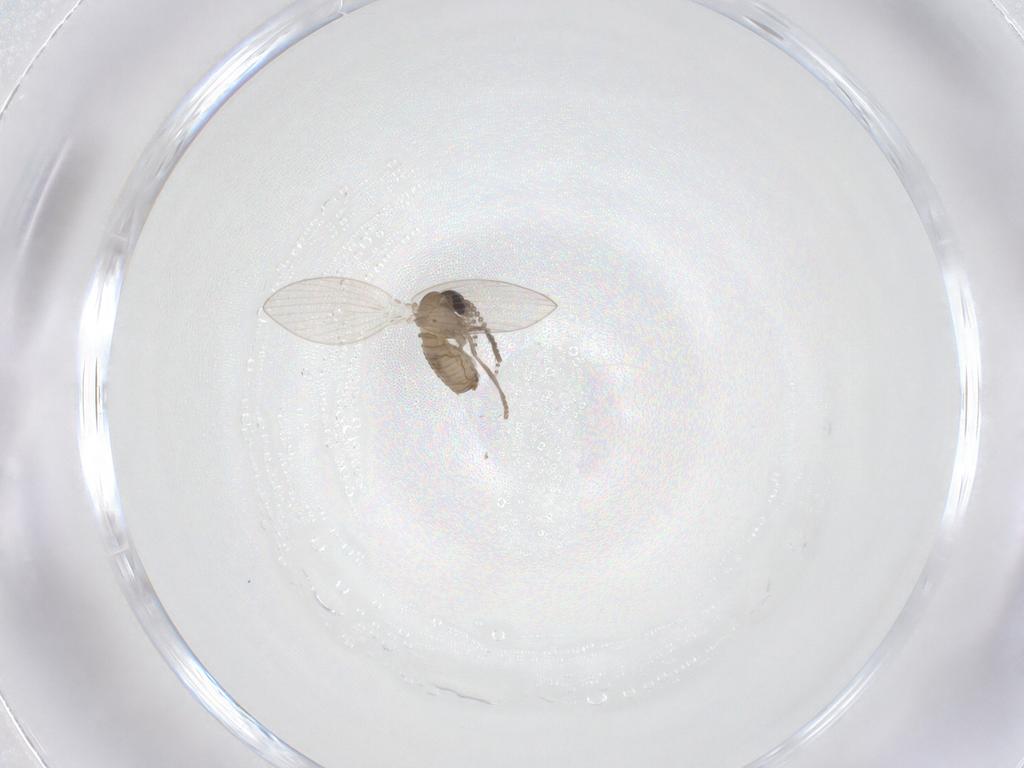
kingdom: Animalia
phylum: Arthropoda
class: Insecta
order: Diptera
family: Psychodidae
